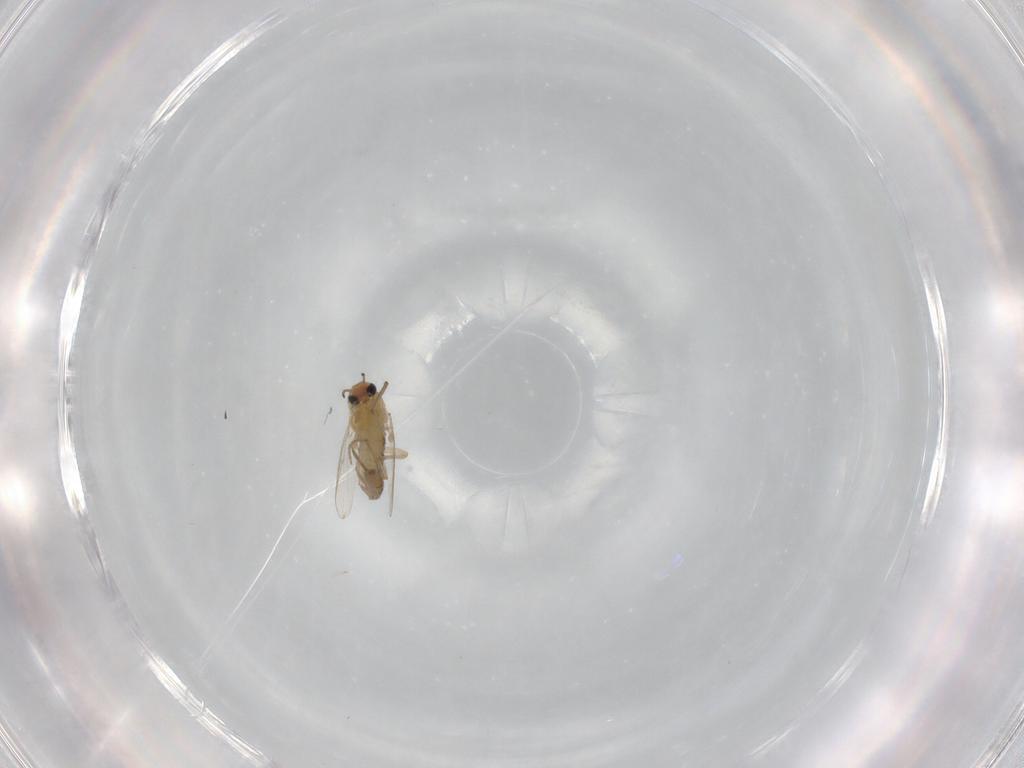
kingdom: Animalia
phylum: Arthropoda
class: Insecta
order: Diptera
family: Chironomidae
